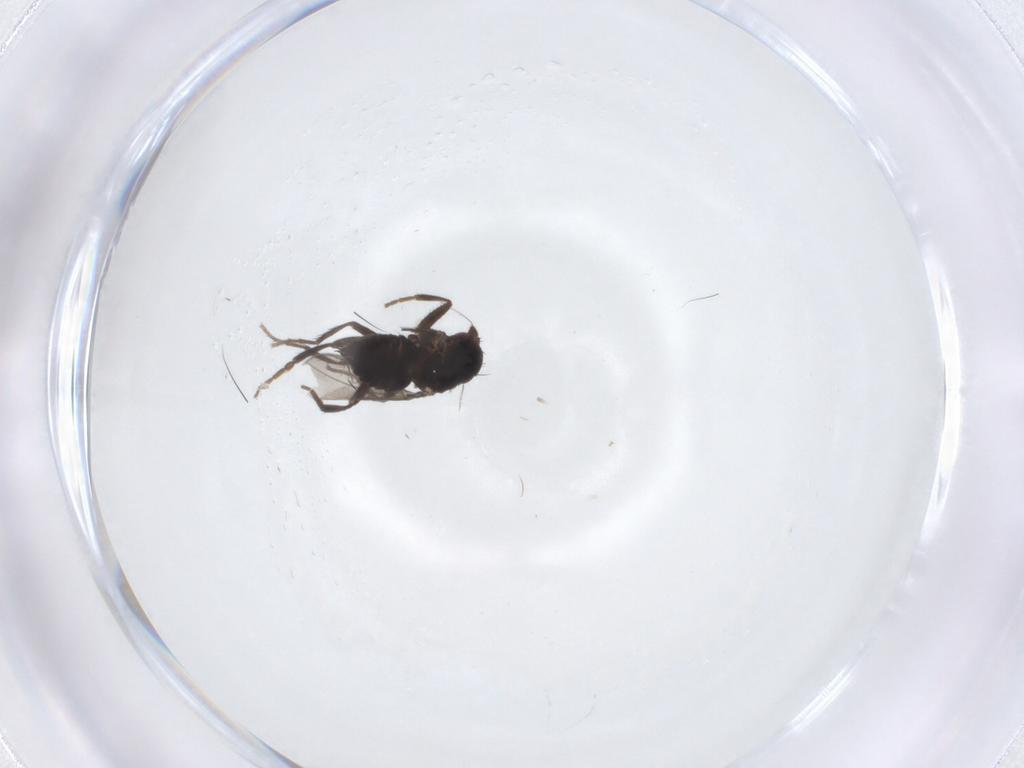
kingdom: Animalia
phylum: Arthropoda
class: Insecta
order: Diptera
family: Sphaeroceridae
